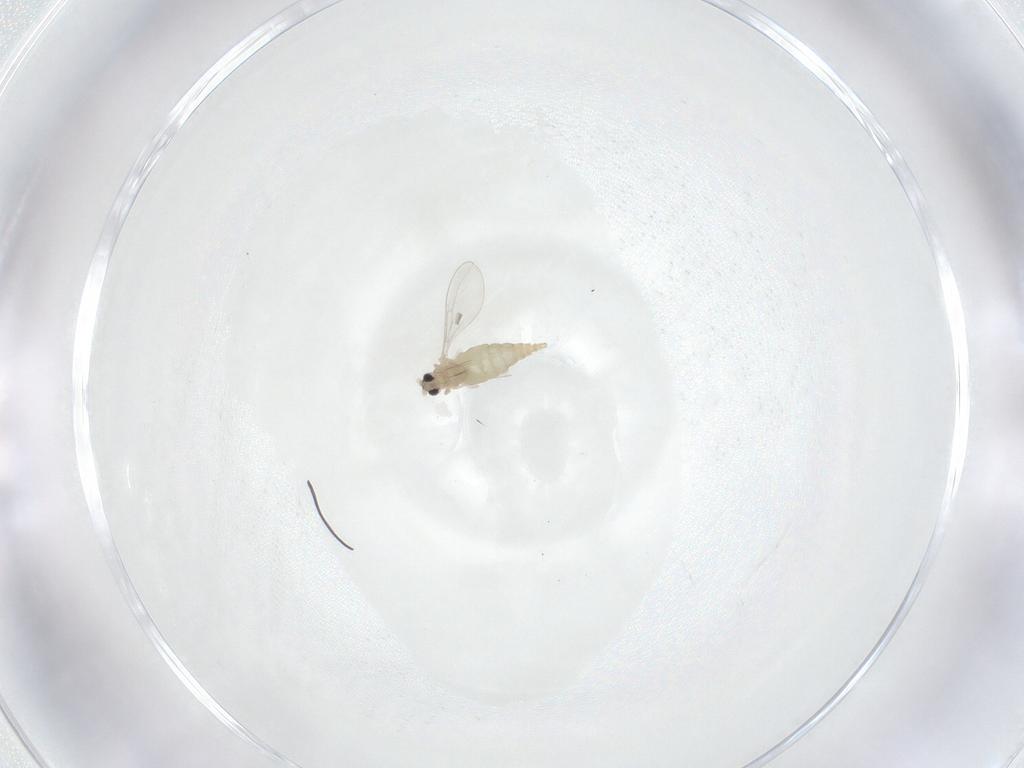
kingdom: Animalia
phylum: Arthropoda
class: Insecta
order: Diptera
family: Cecidomyiidae
